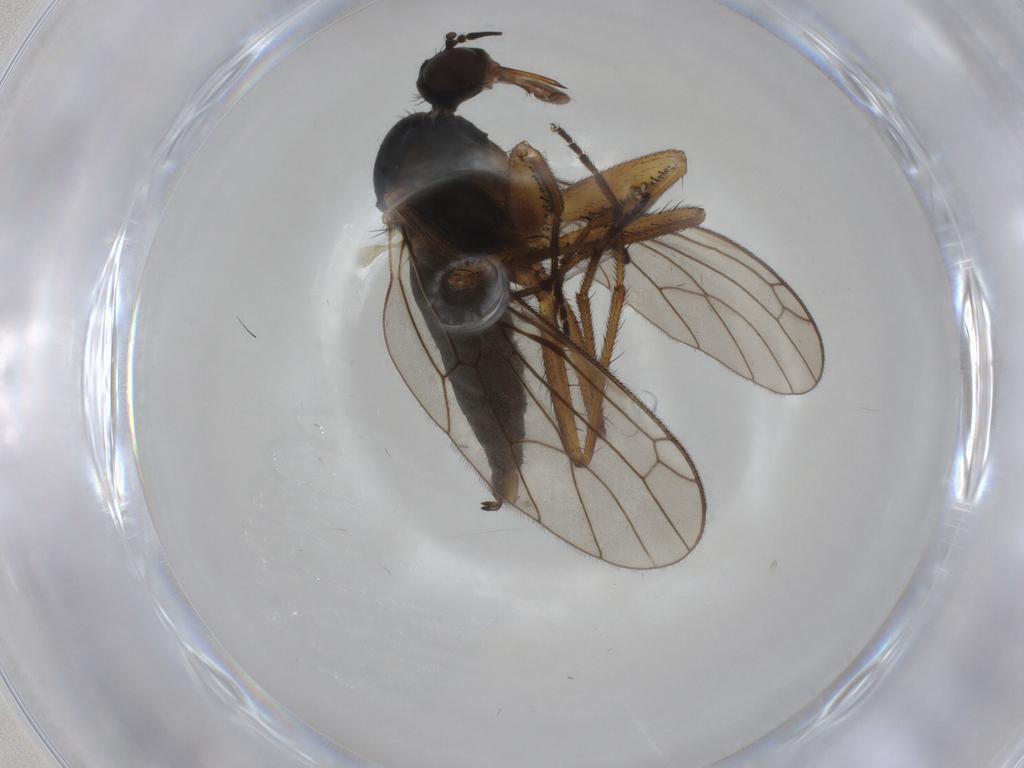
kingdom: Animalia
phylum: Arthropoda
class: Insecta
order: Diptera
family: Empididae
